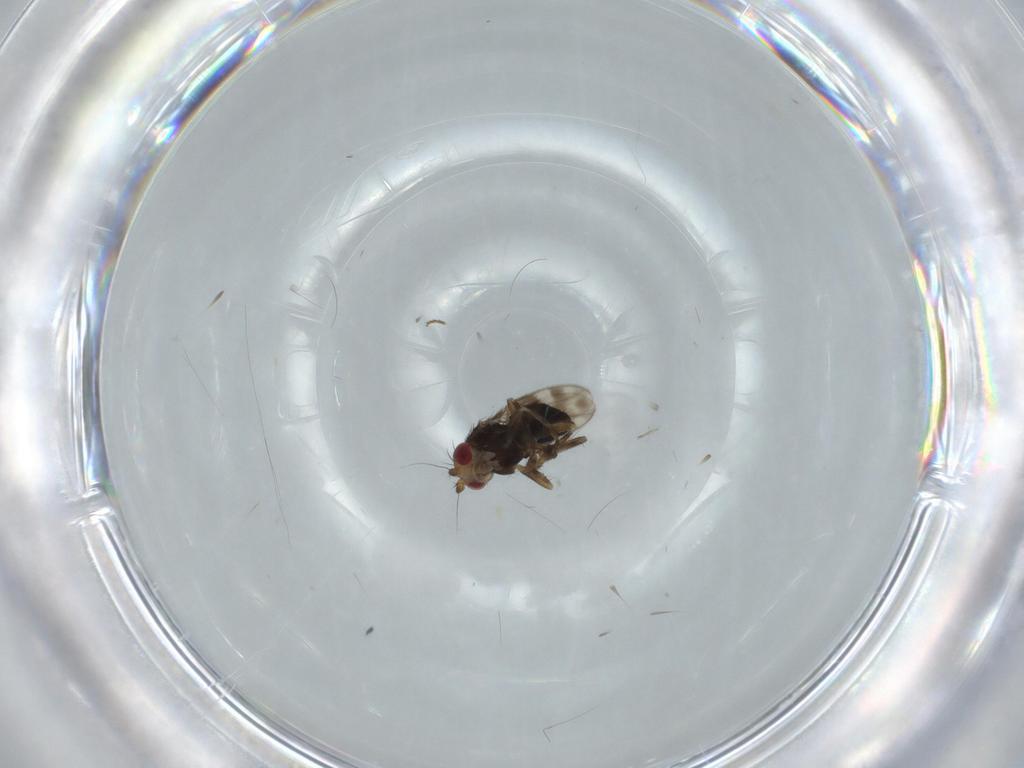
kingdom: Animalia
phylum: Arthropoda
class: Insecta
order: Diptera
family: Sphaeroceridae
